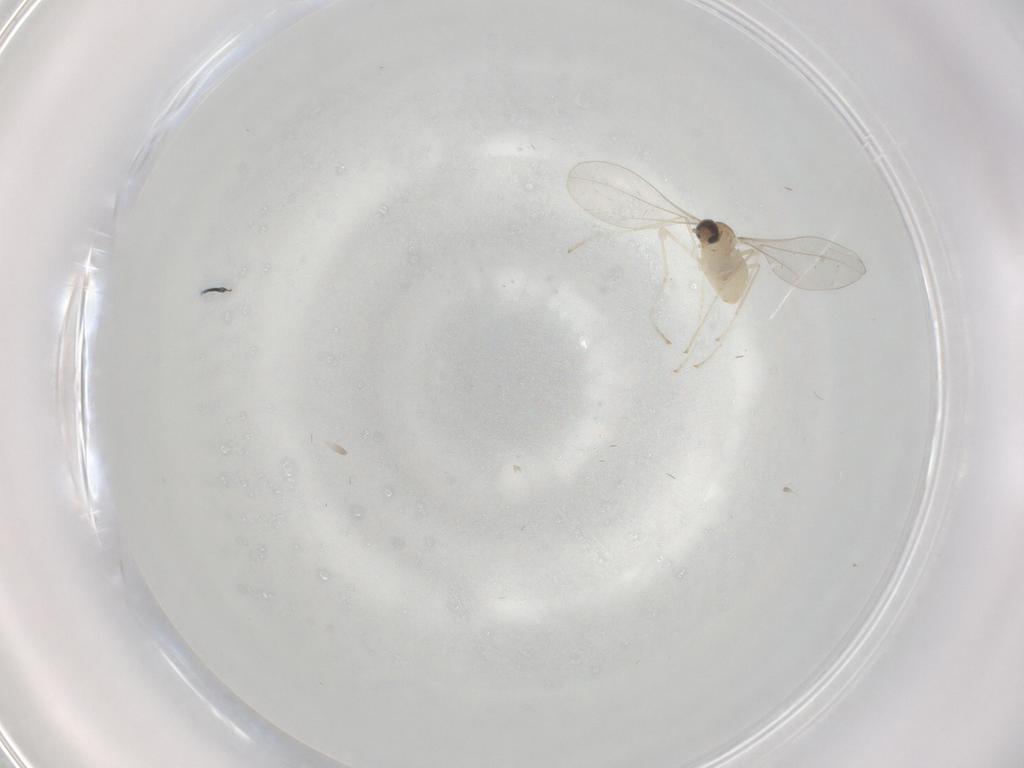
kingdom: Animalia
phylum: Arthropoda
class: Insecta
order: Diptera
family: Cecidomyiidae
